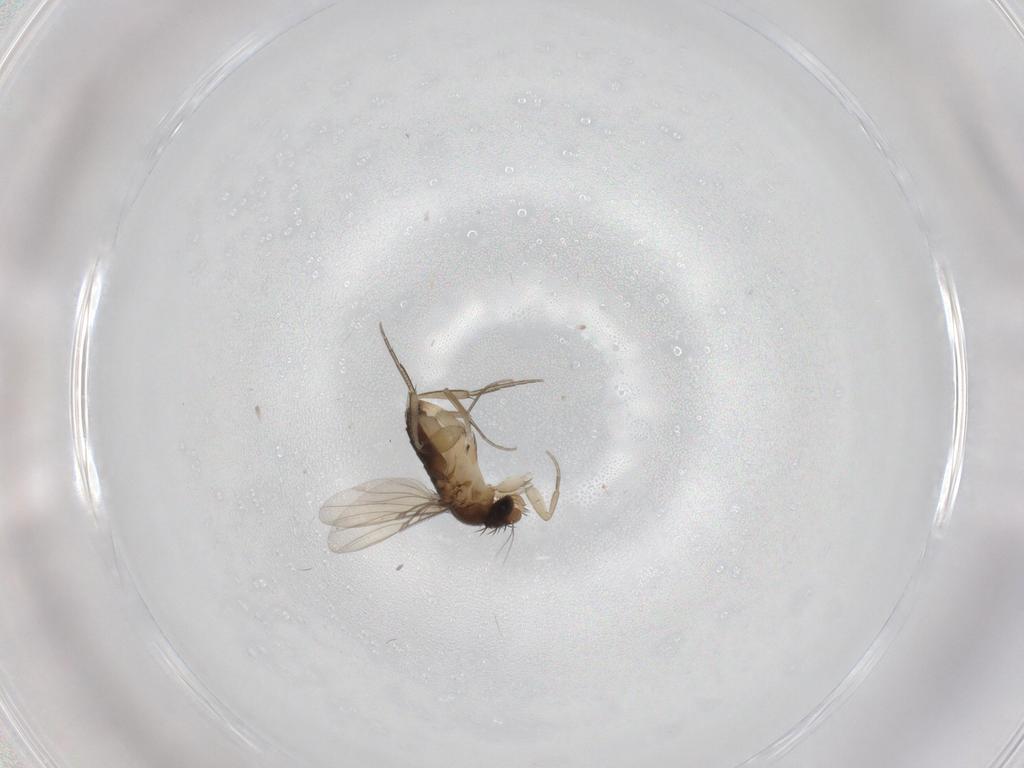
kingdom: Animalia
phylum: Arthropoda
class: Insecta
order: Diptera
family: Phoridae
